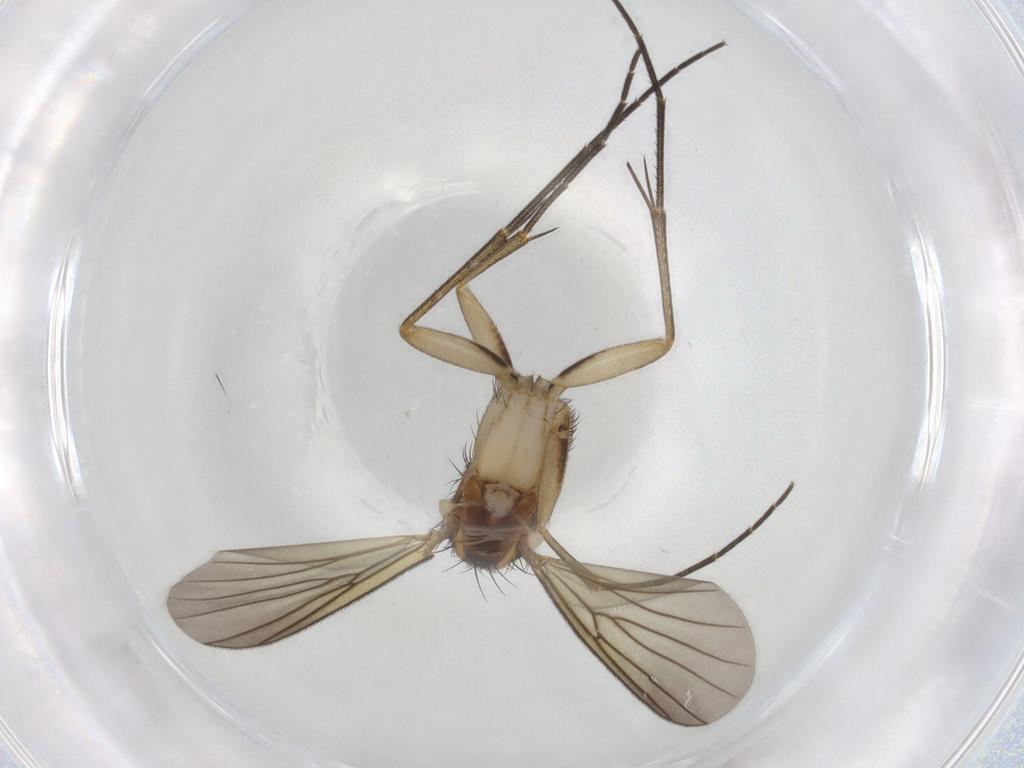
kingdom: Animalia
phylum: Arthropoda
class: Insecta
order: Diptera
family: Mycetophilidae
